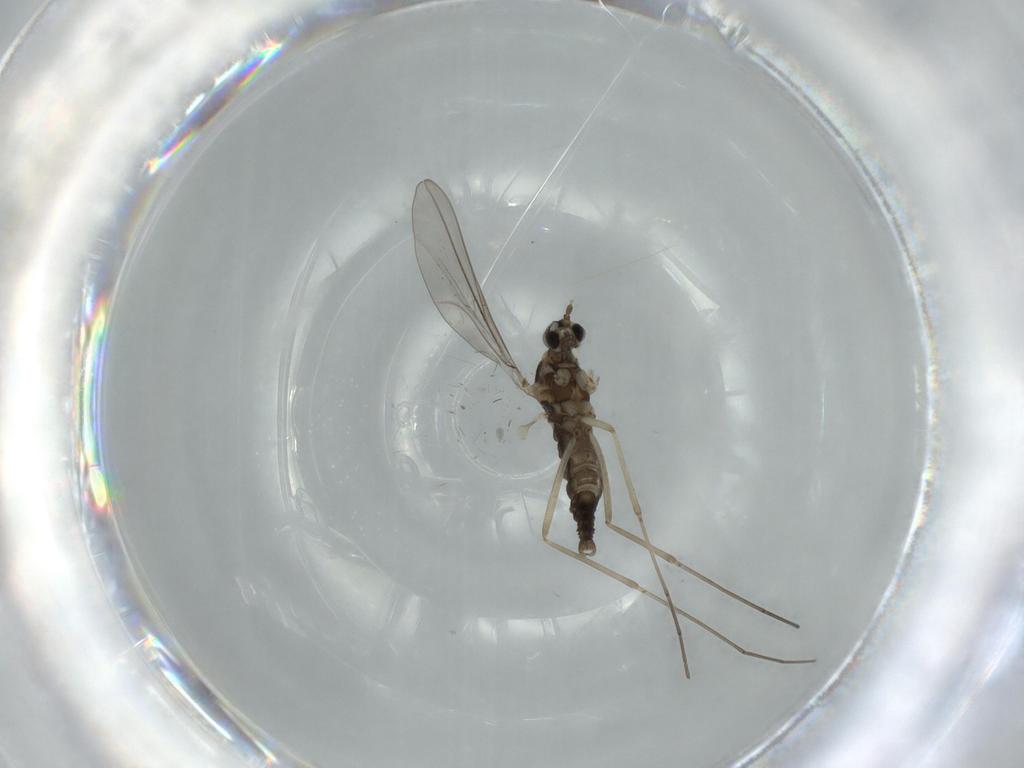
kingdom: Animalia
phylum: Arthropoda
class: Insecta
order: Diptera
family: Cecidomyiidae
